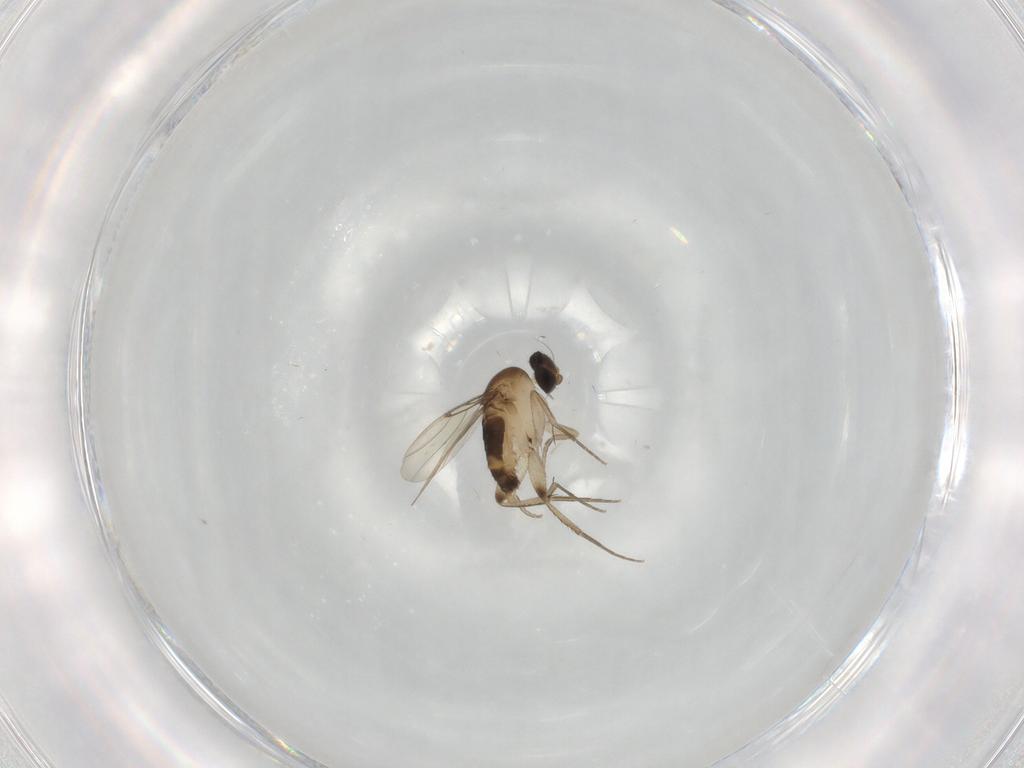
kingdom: Animalia
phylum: Arthropoda
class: Insecta
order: Diptera
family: Phoridae
